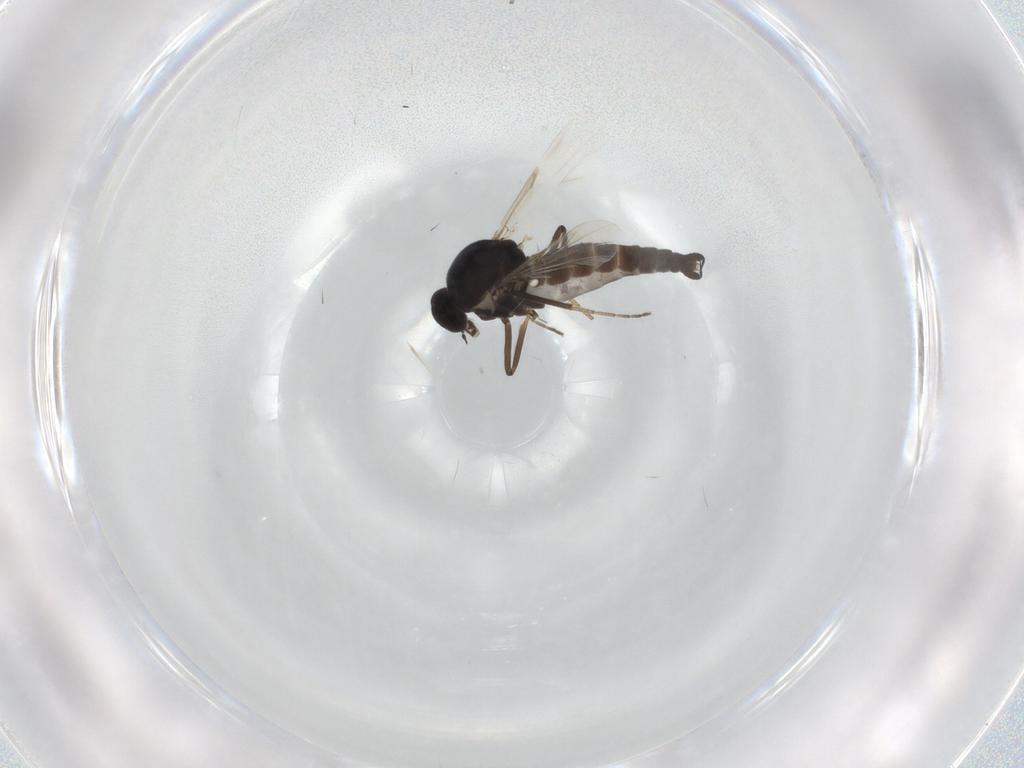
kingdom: Animalia
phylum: Arthropoda
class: Insecta
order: Diptera
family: Ceratopogonidae
